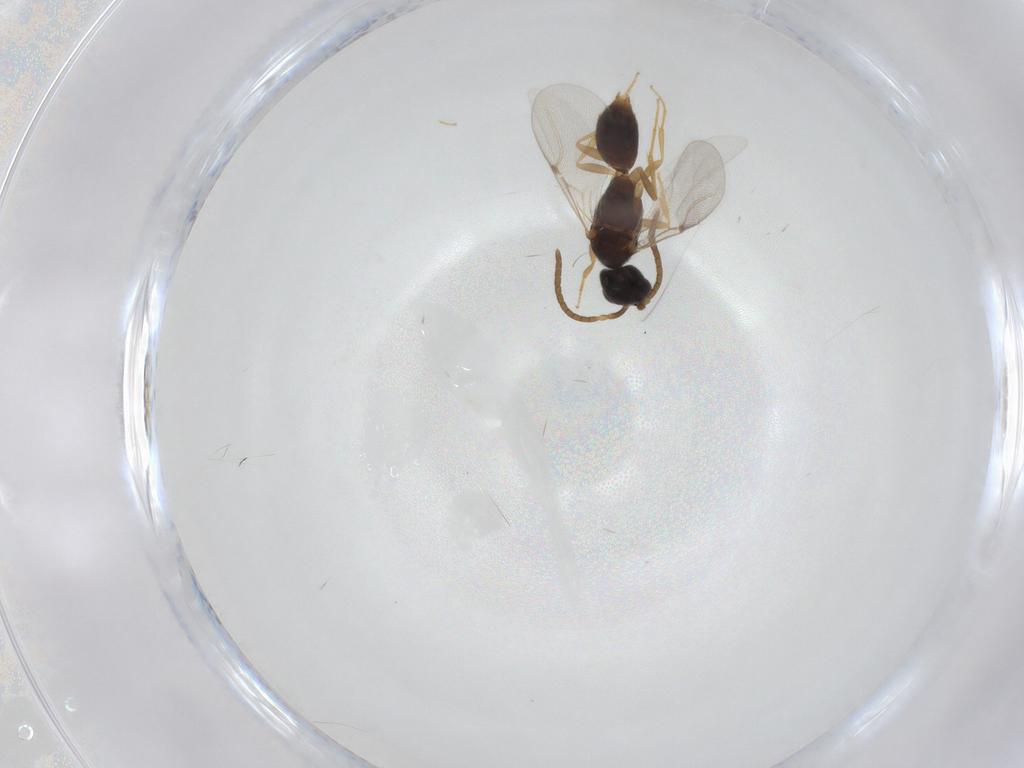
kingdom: Animalia
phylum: Arthropoda
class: Insecta
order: Hymenoptera
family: Bethylidae
